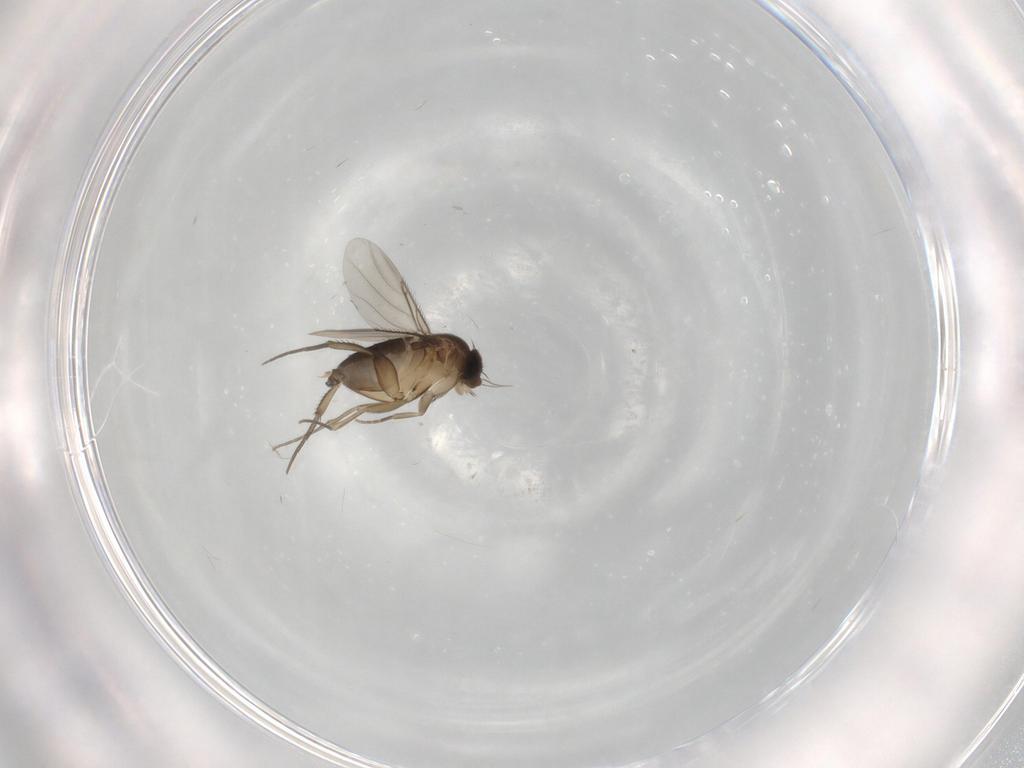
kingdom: Animalia
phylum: Arthropoda
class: Insecta
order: Diptera
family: Phoridae
